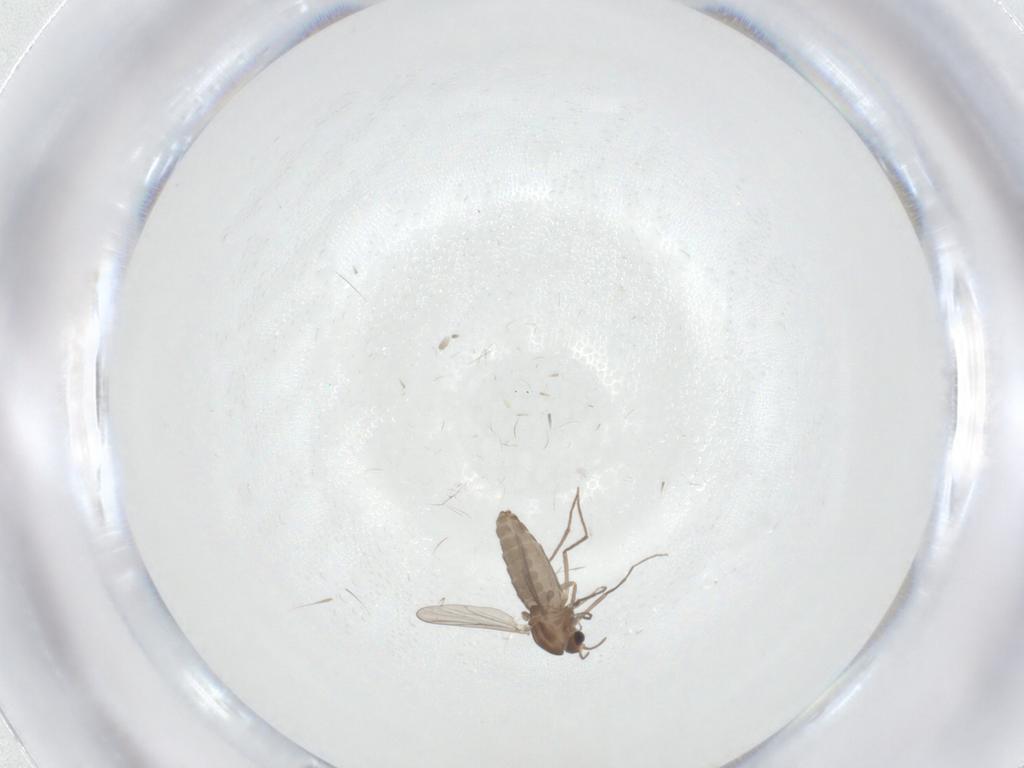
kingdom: Animalia
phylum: Arthropoda
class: Insecta
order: Diptera
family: Chironomidae
